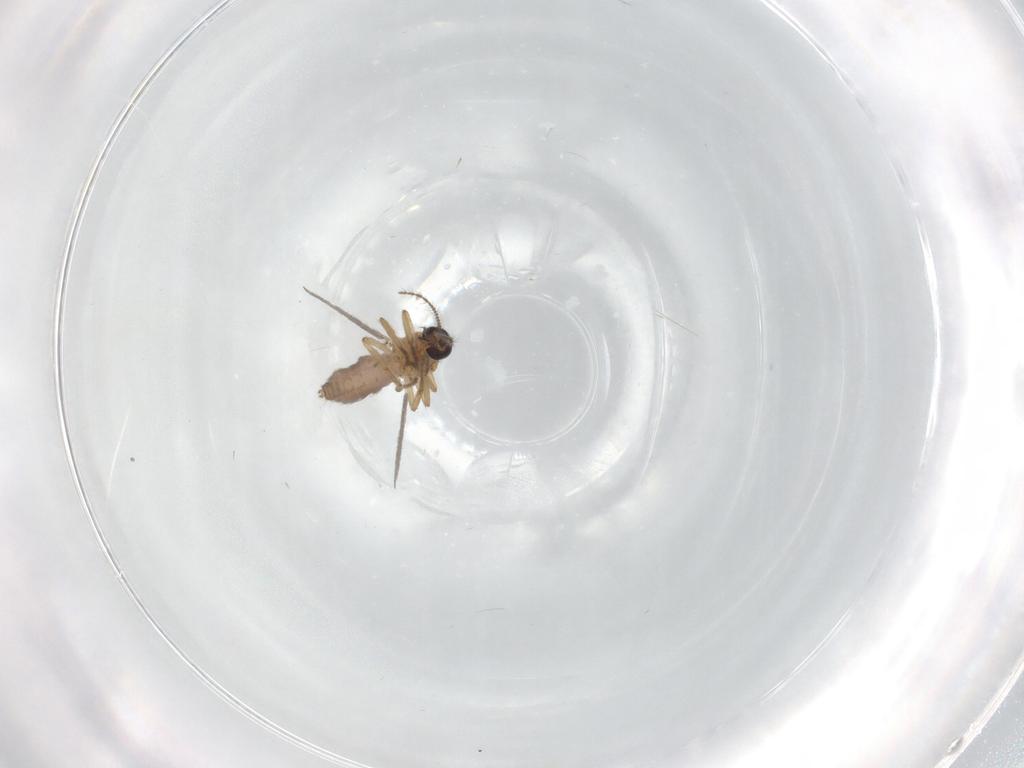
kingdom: Animalia
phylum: Arthropoda
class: Insecta
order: Diptera
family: Ceratopogonidae
